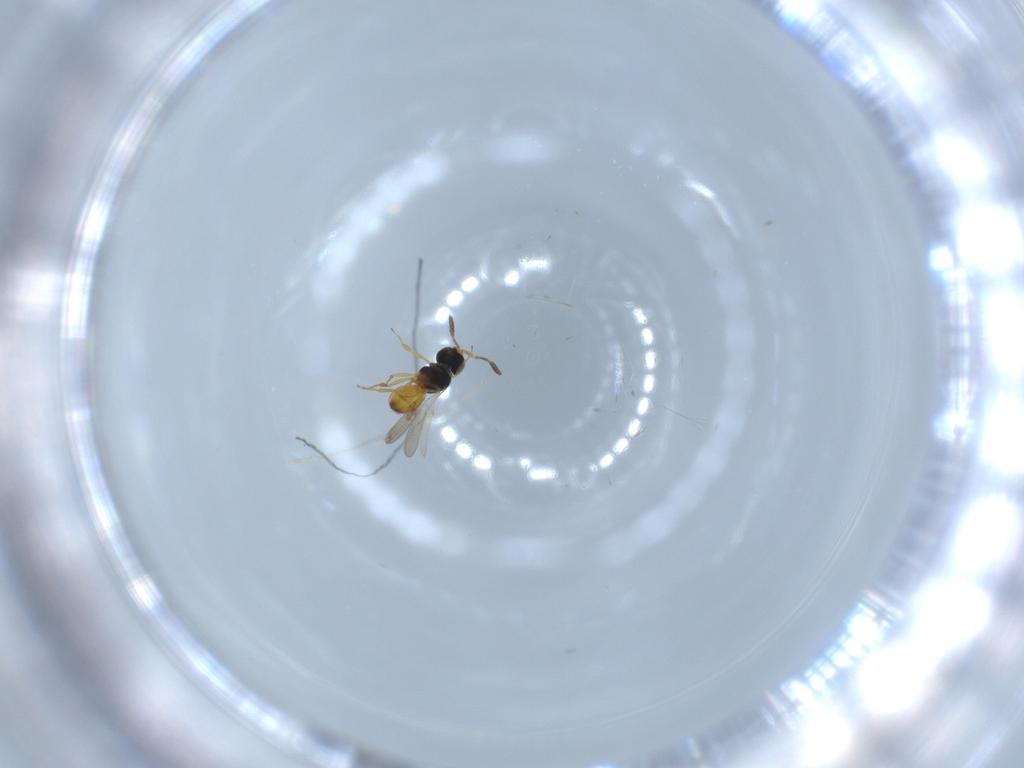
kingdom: Animalia
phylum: Arthropoda
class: Insecta
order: Hymenoptera
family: Scelionidae
